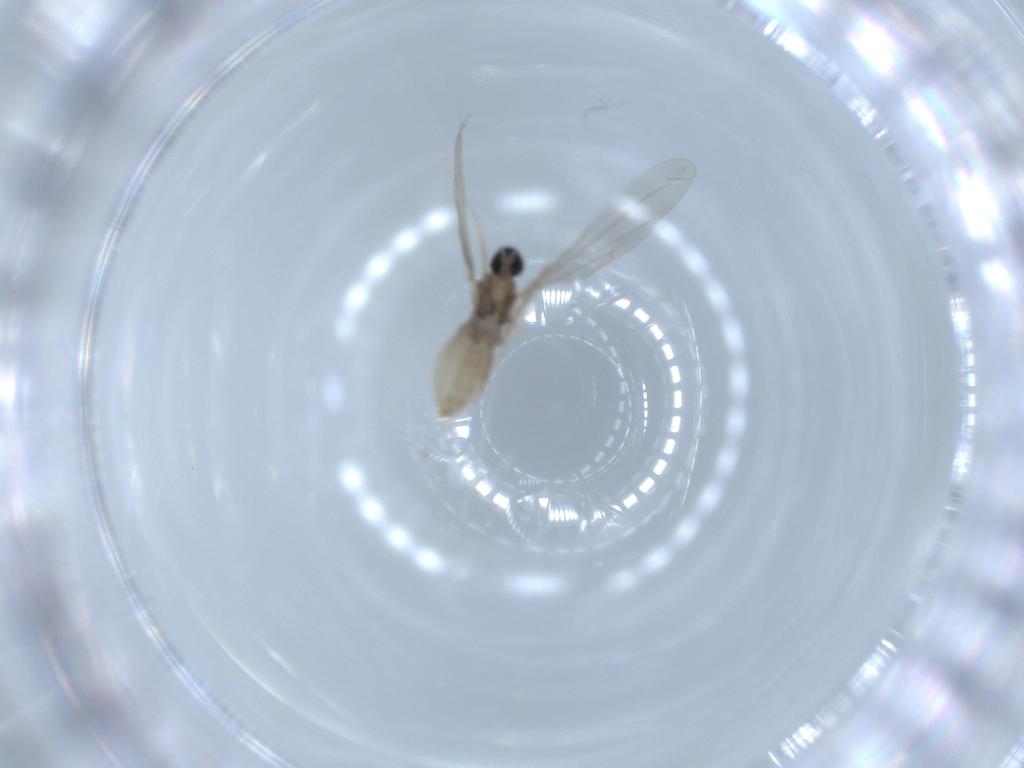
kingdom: Animalia
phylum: Arthropoda
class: Insecta
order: Diptera
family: Cecidomyiidae
